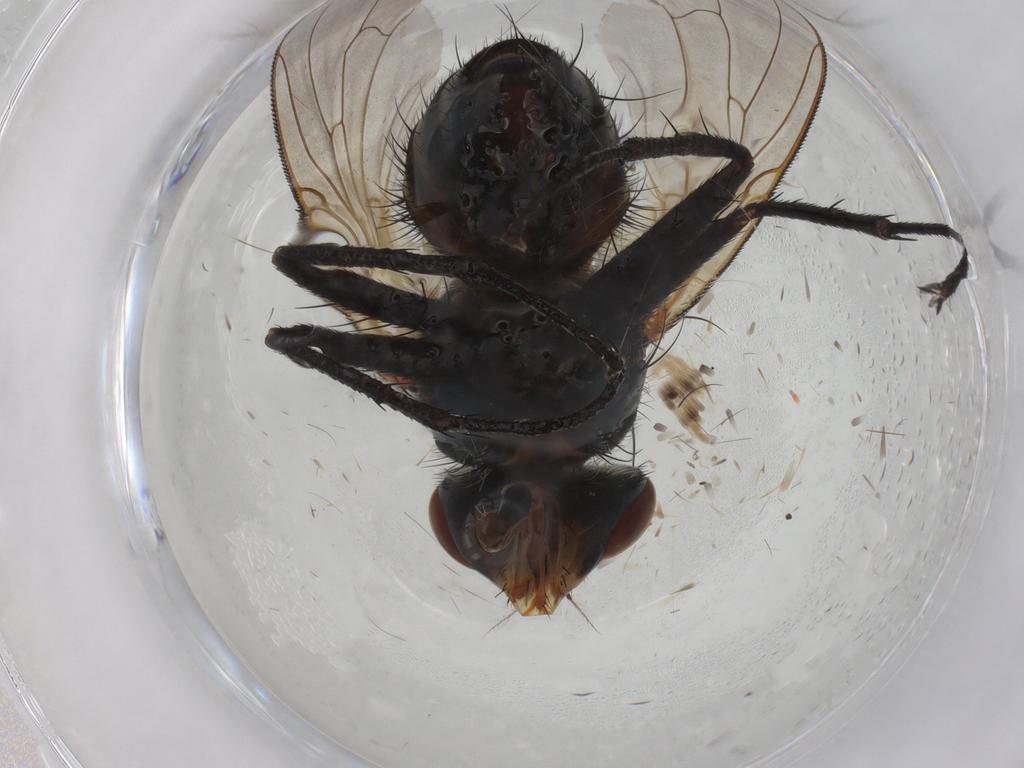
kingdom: Animalia
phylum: Arthropoda
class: Insecta
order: Diptera
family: Calliphoridae
